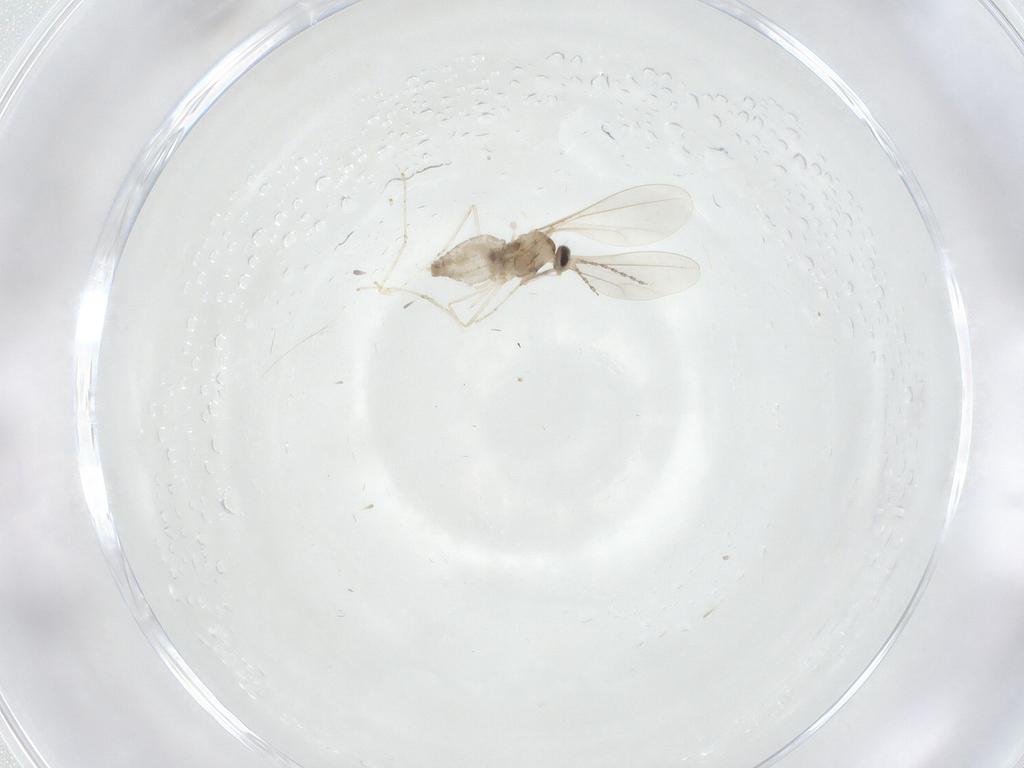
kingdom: Animalia
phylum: Arthropoda
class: Insecta
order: Diptera
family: Cecidomyiidae
